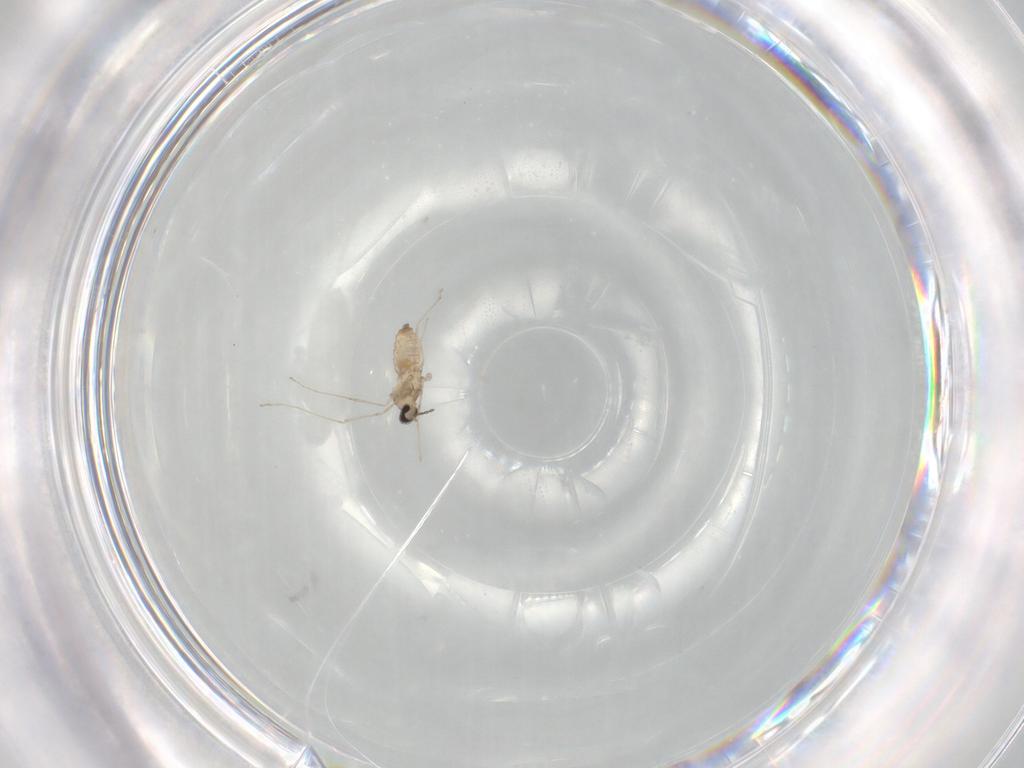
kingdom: Animalia
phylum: Arthropoda
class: Insecta
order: Diptera
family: Cecidomyiidae
